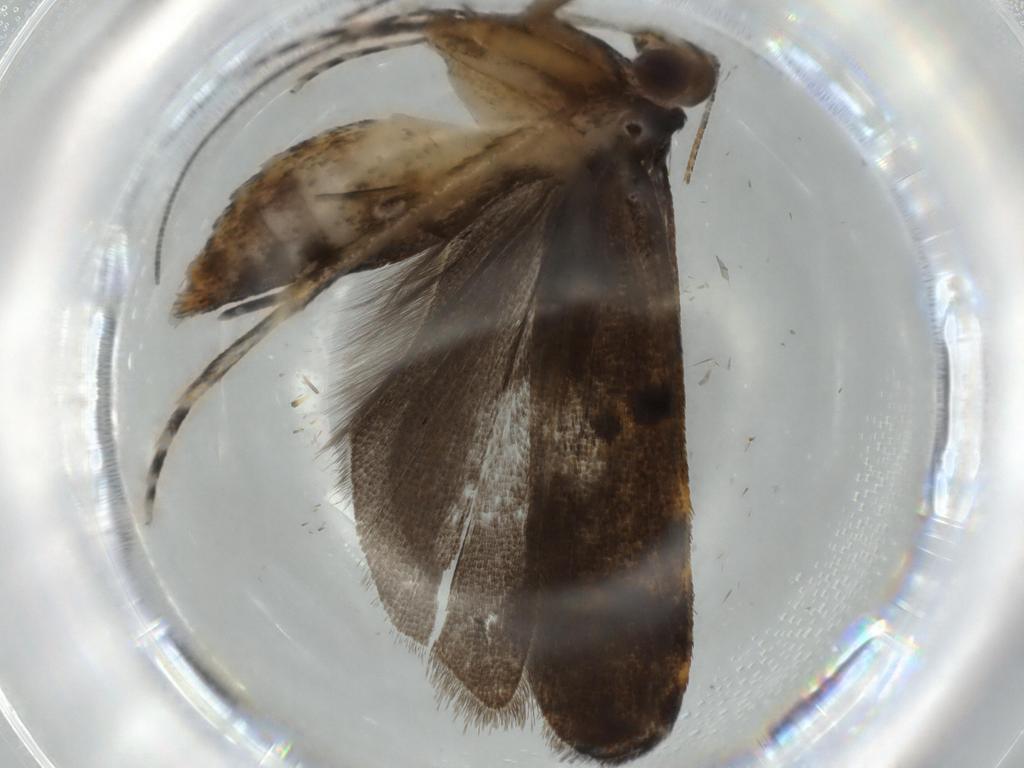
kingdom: Animalia
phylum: Arthropoda
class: Insecta
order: Lepidoptera
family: Autostichidae
